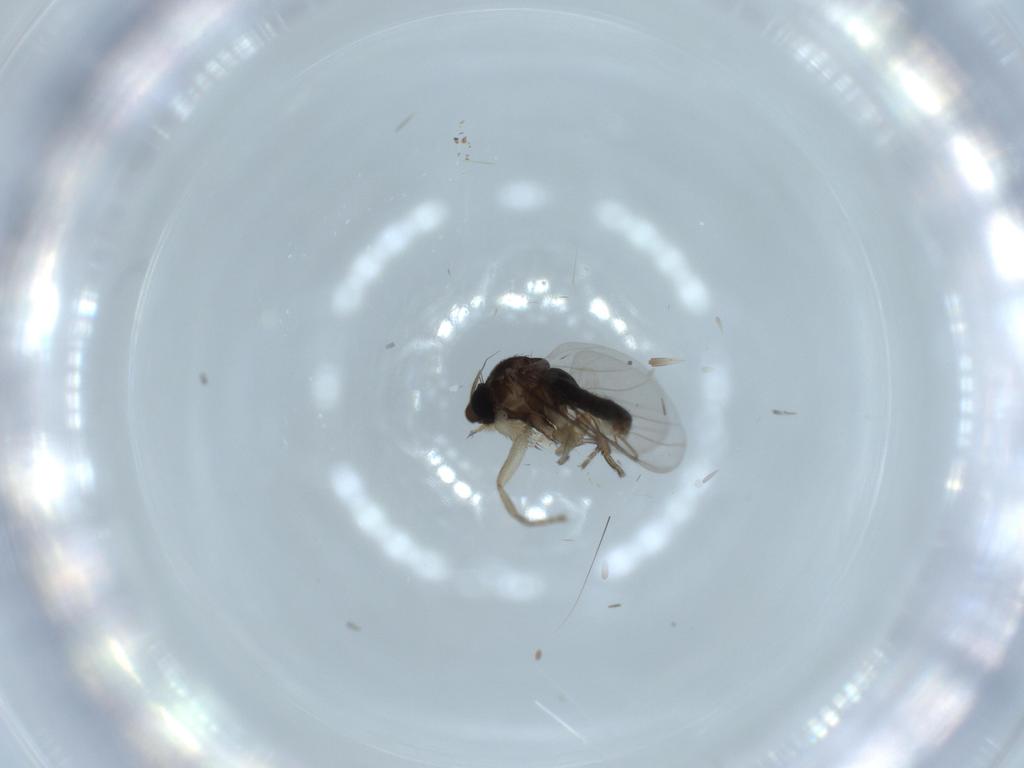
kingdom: Animalia
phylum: Arthropoda
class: Insecta
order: Diptera
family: Phoridae
